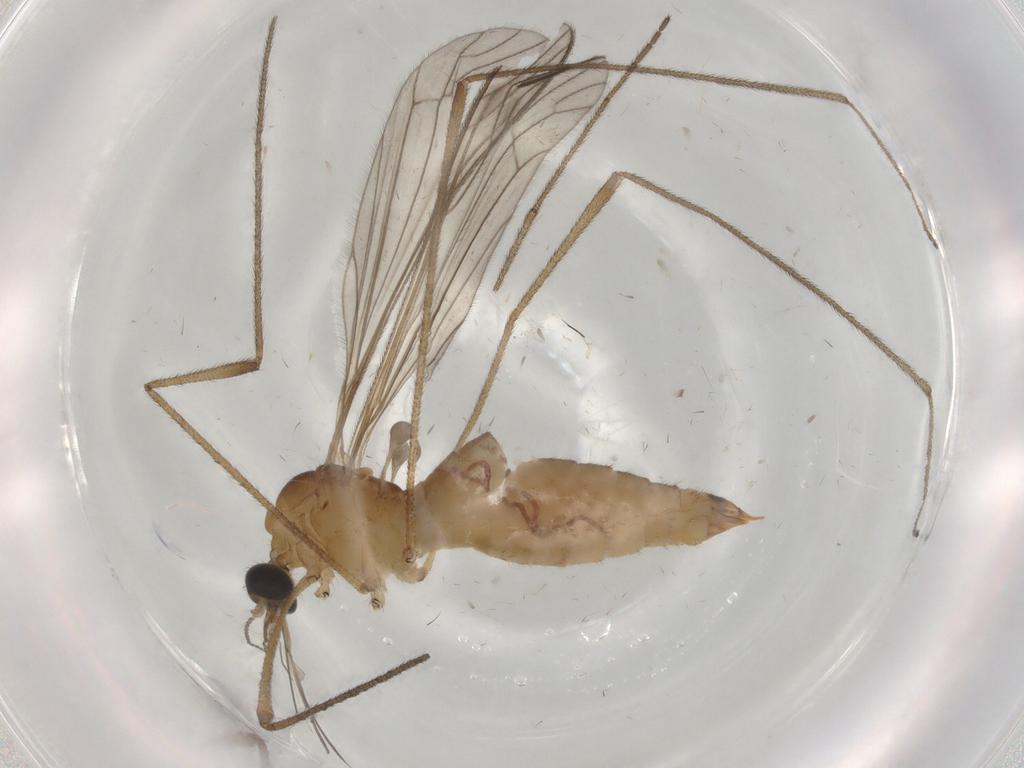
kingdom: Animalia
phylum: Arthropoda
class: Insecta
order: Diptera
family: Limoniidae
